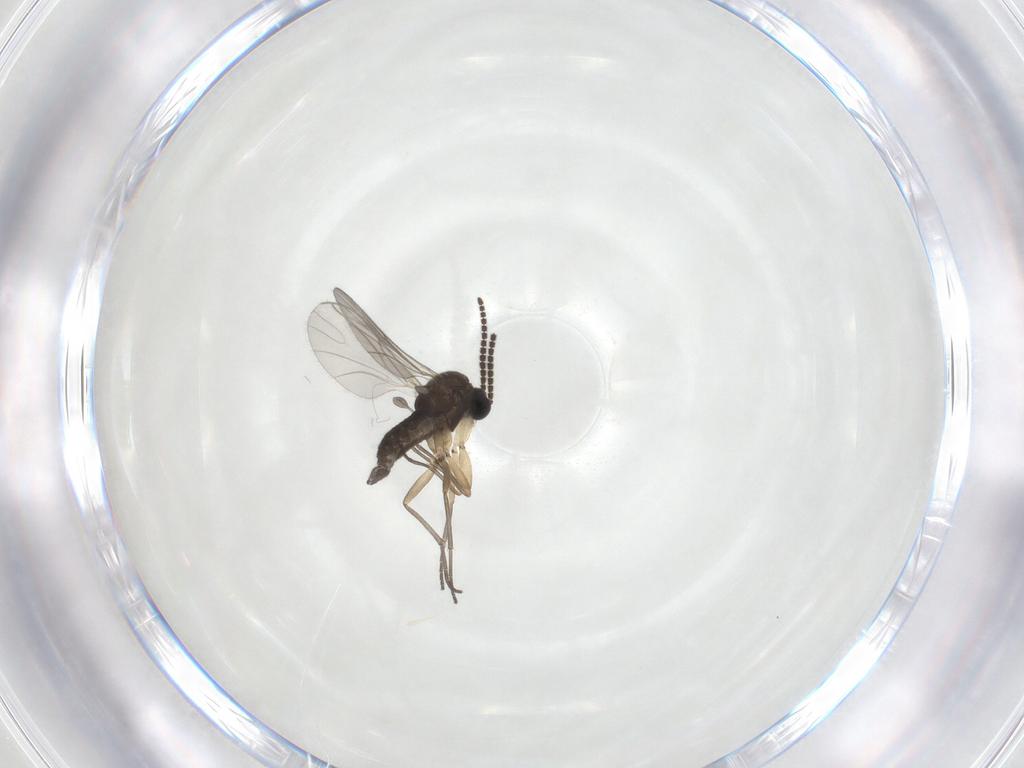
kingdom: Animalia
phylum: Arthropoda
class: Insecta
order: Diptera
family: Sciaridae
